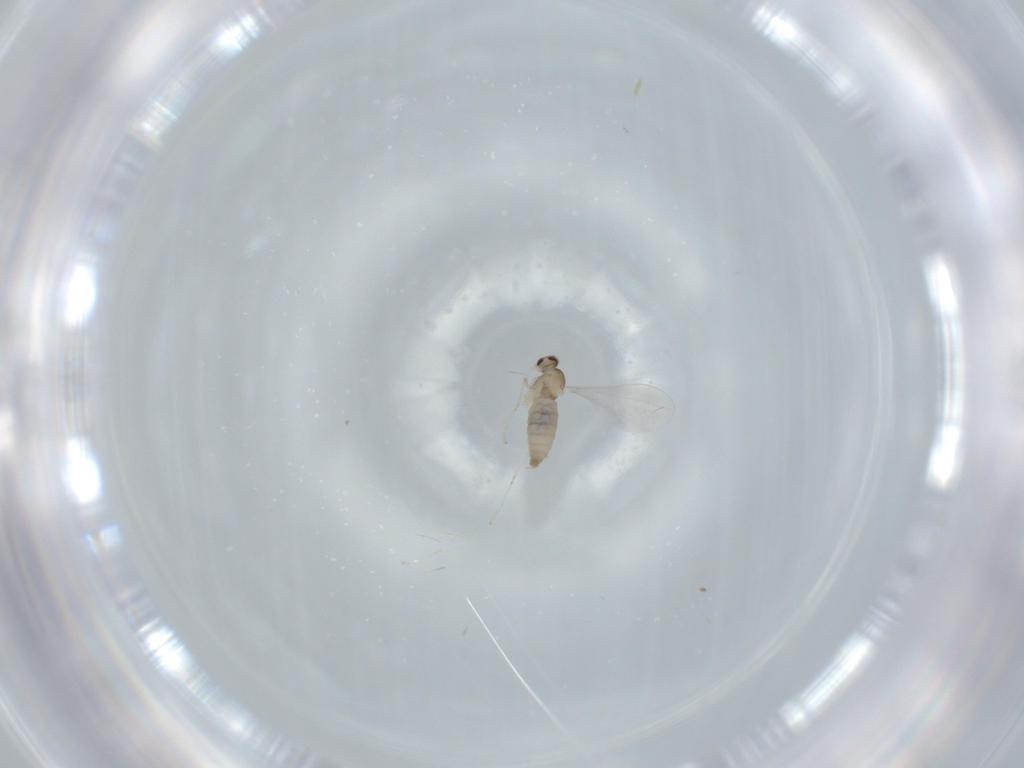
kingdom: Animalia
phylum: Arthropoda
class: Insecta
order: Diptera
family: Cecidomyiidae
